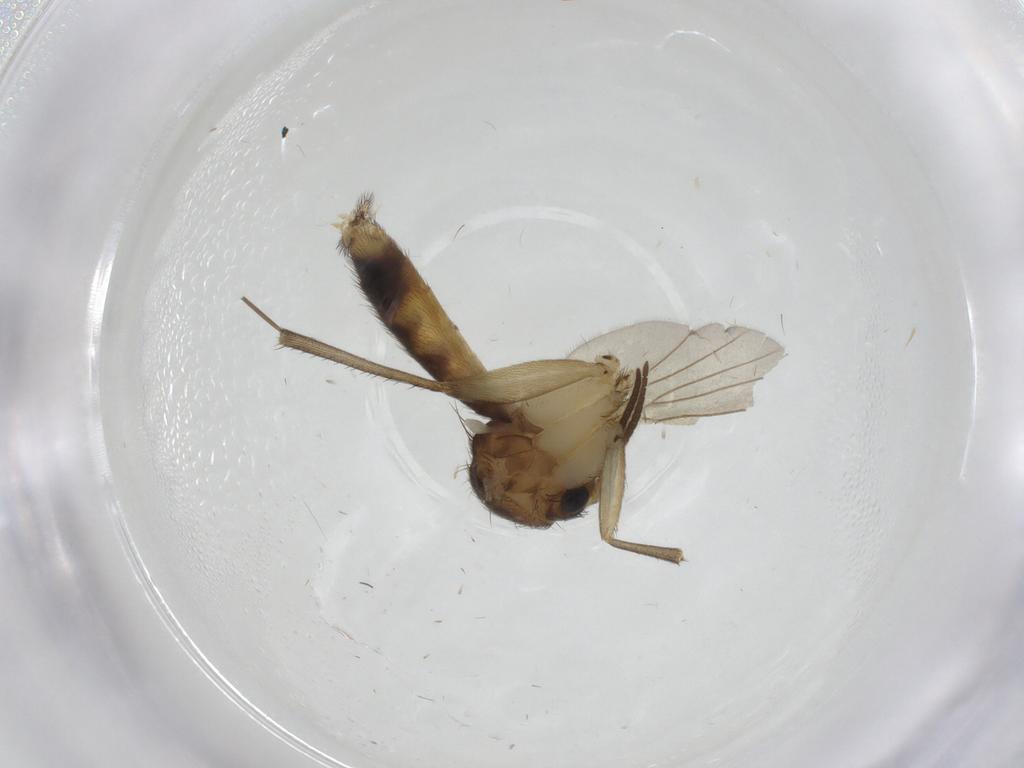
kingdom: Animalia
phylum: Arthropoda
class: Insecta
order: Diptera
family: Mycetophilidae
